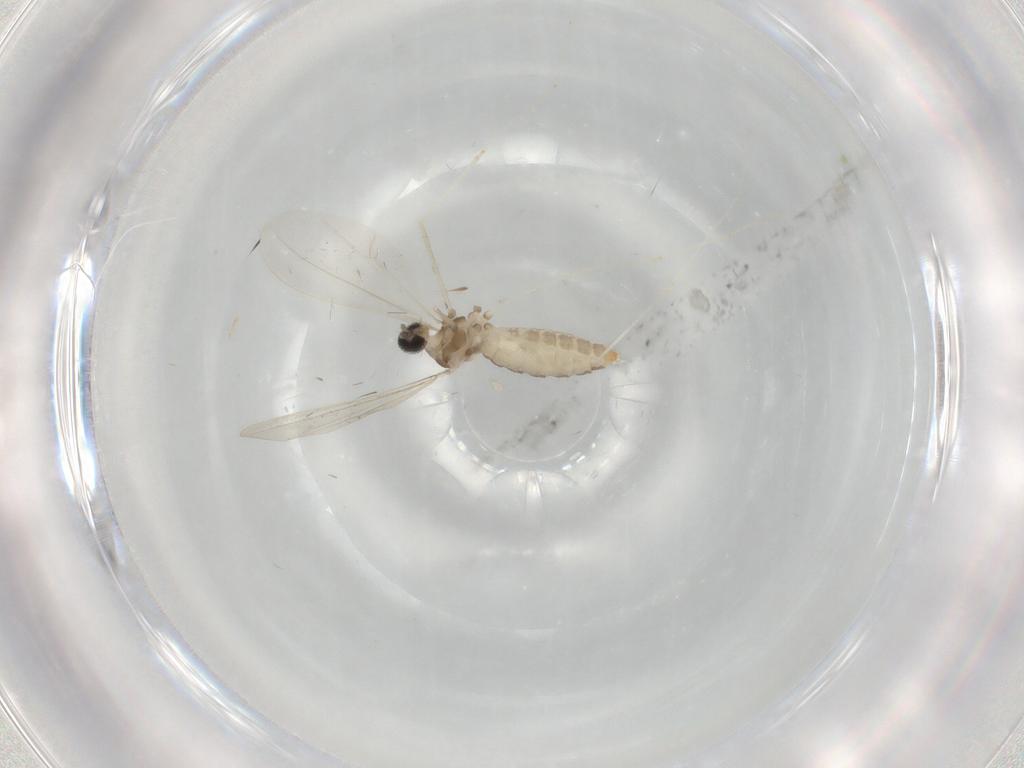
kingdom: Animalia
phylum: Arthropoda
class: Insecta
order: Diptera
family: Cecidomyiidae
